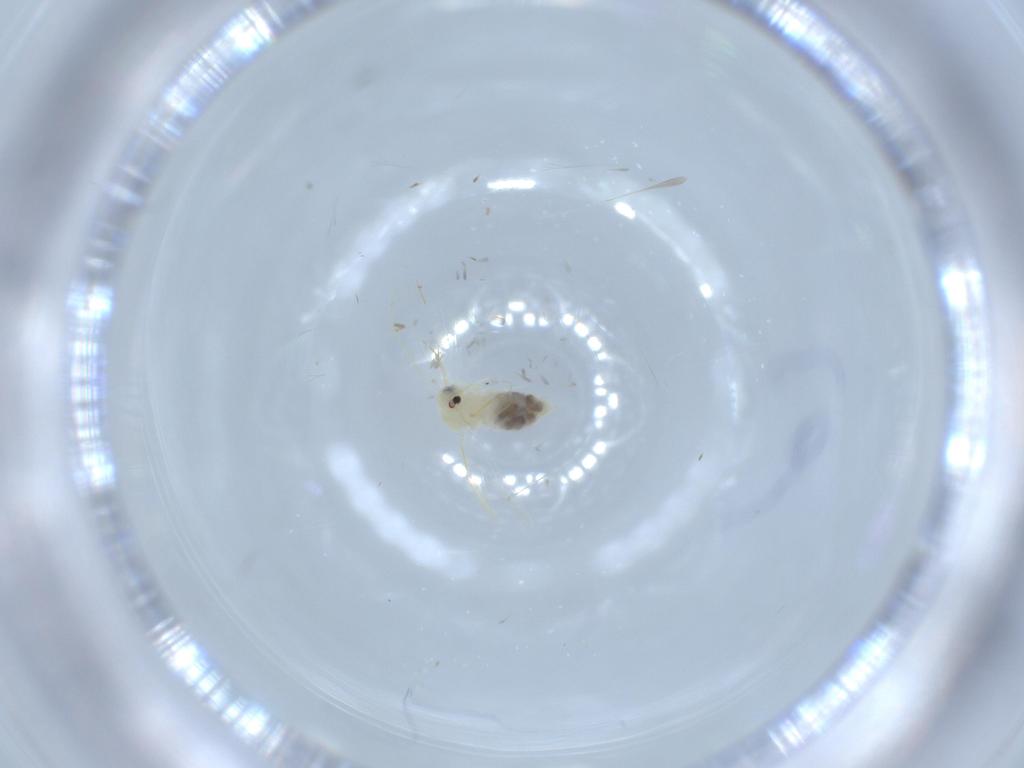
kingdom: Animalia
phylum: Arthropoda
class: Insecta
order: Hemiptera
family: Aleyrodidae
